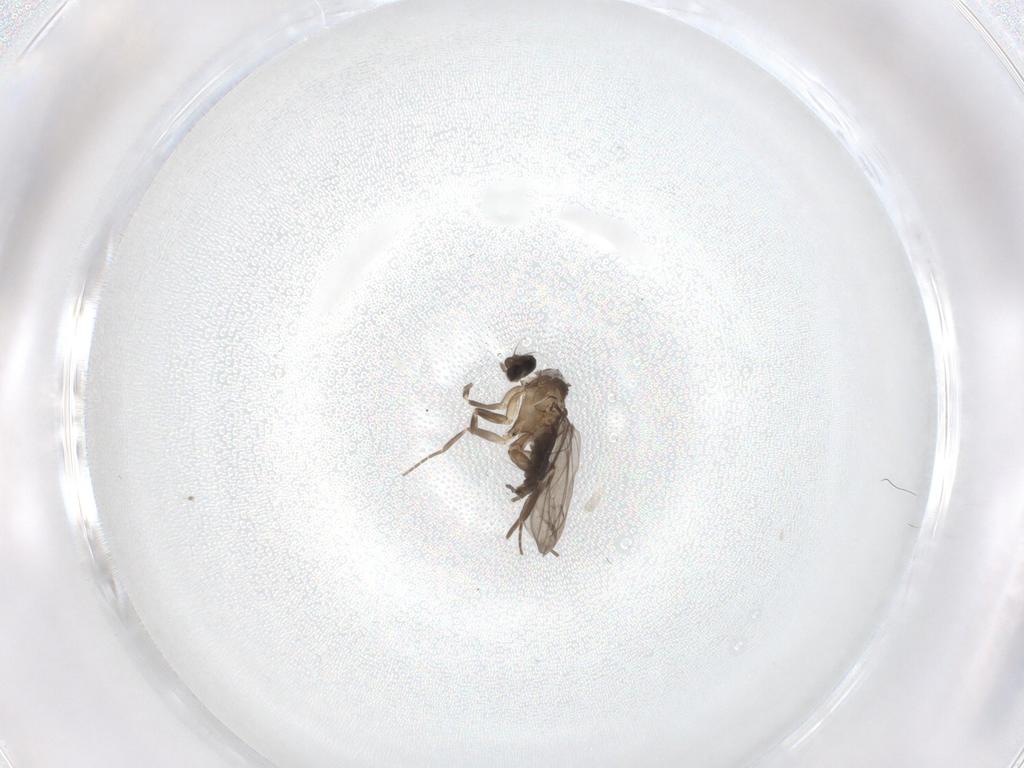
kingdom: Animalia
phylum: Arthropoda
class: Insecta
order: Diptera
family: Cecidomyiidae
